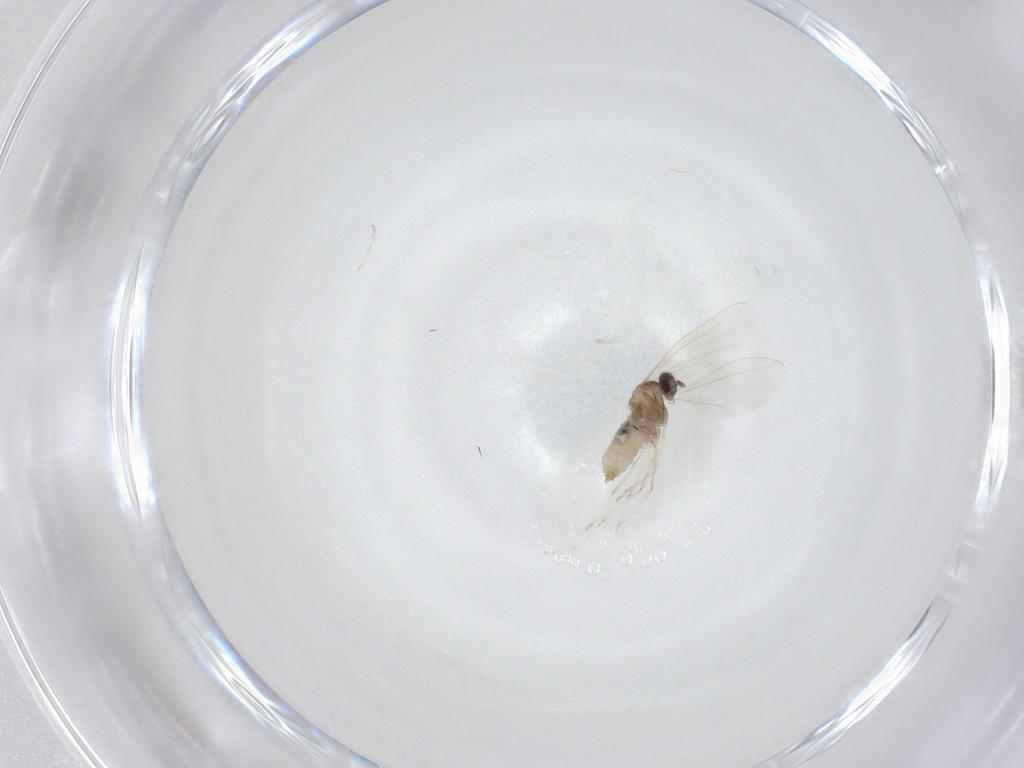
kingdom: Animalia
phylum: Arthropoda
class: Insecta
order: Diptera
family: Cecidomyiidae
